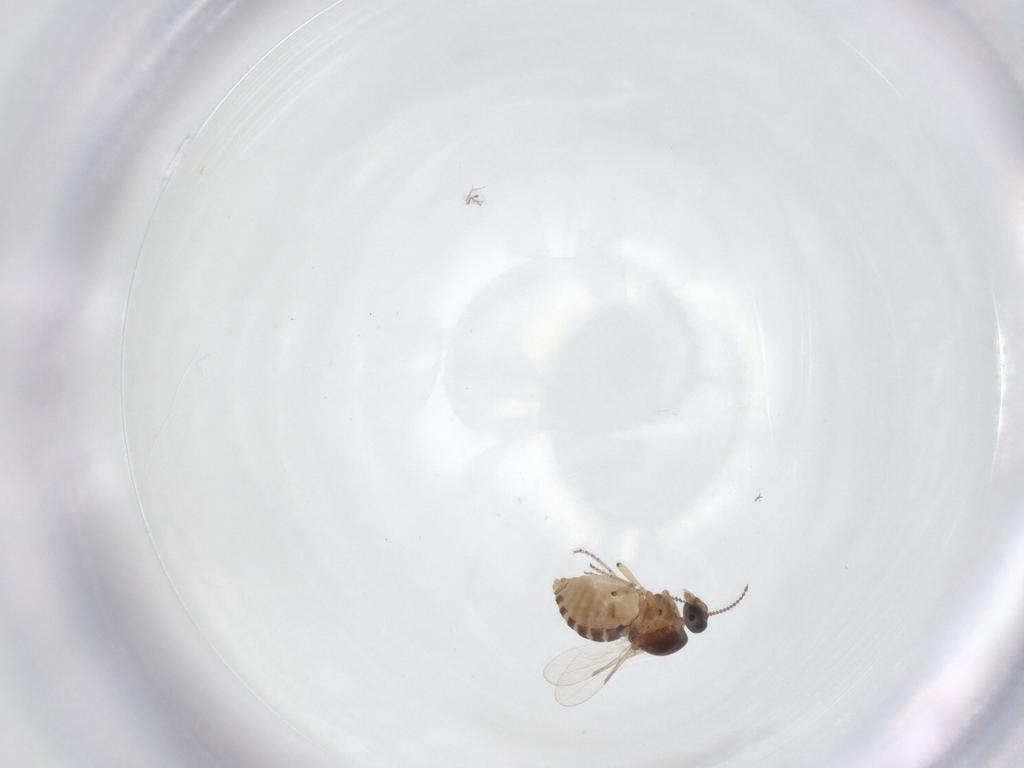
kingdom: Animalia
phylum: Arthropoda
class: Insecta
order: Diptera
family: Ceratopogonidae
